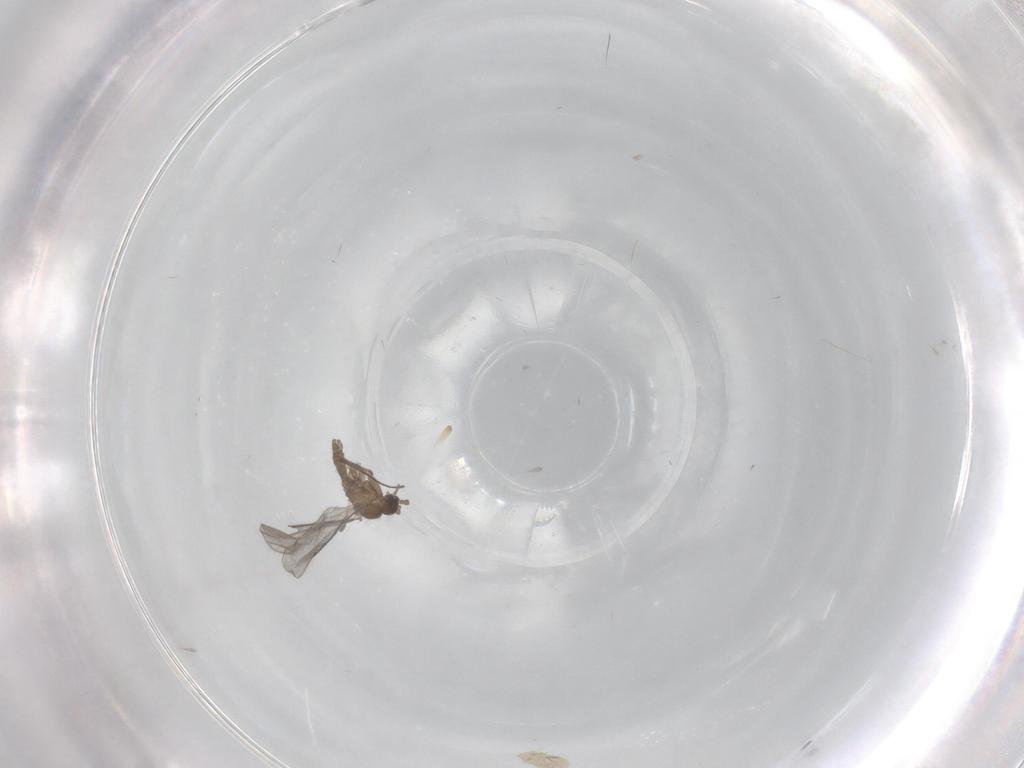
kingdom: Animalia
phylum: Arthropoda
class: Insecta
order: Diptera
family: Sciaridae
